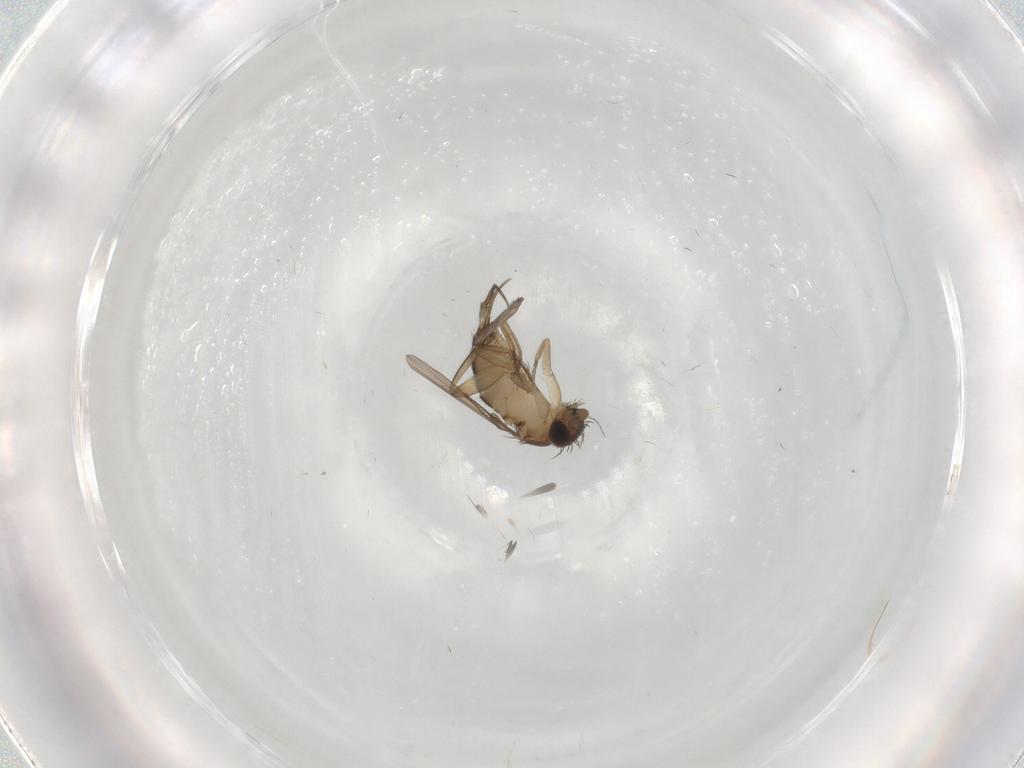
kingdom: Animalia
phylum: Arthropoda
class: Insecta
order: Diptera
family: Phoridae
